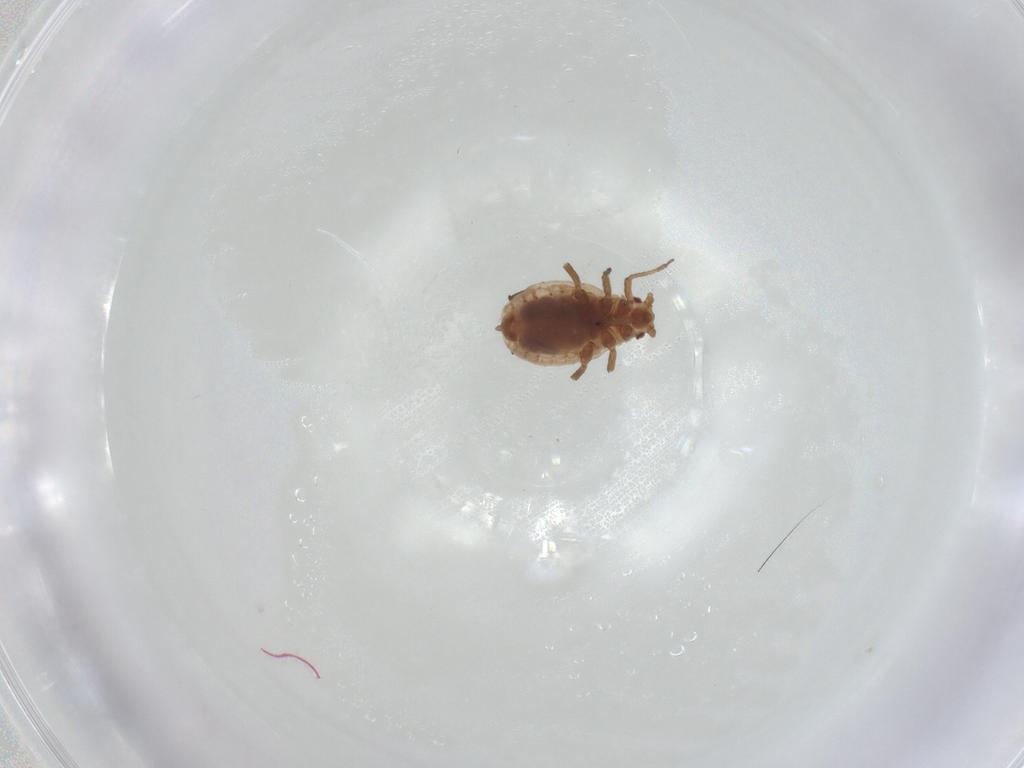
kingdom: Animalia
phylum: Arthropoda
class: Insecta
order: Hemiptera
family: Aphididae
